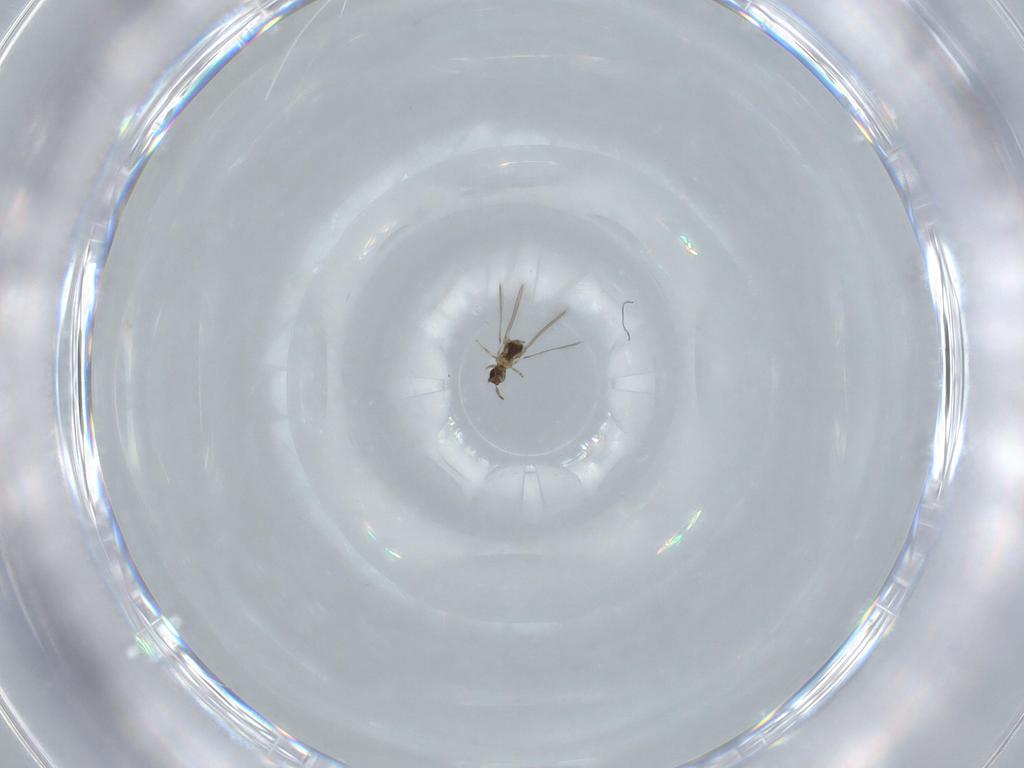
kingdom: Animalia
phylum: Arthropoda
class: Insecta
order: Hymenoptera
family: Mymaridae
